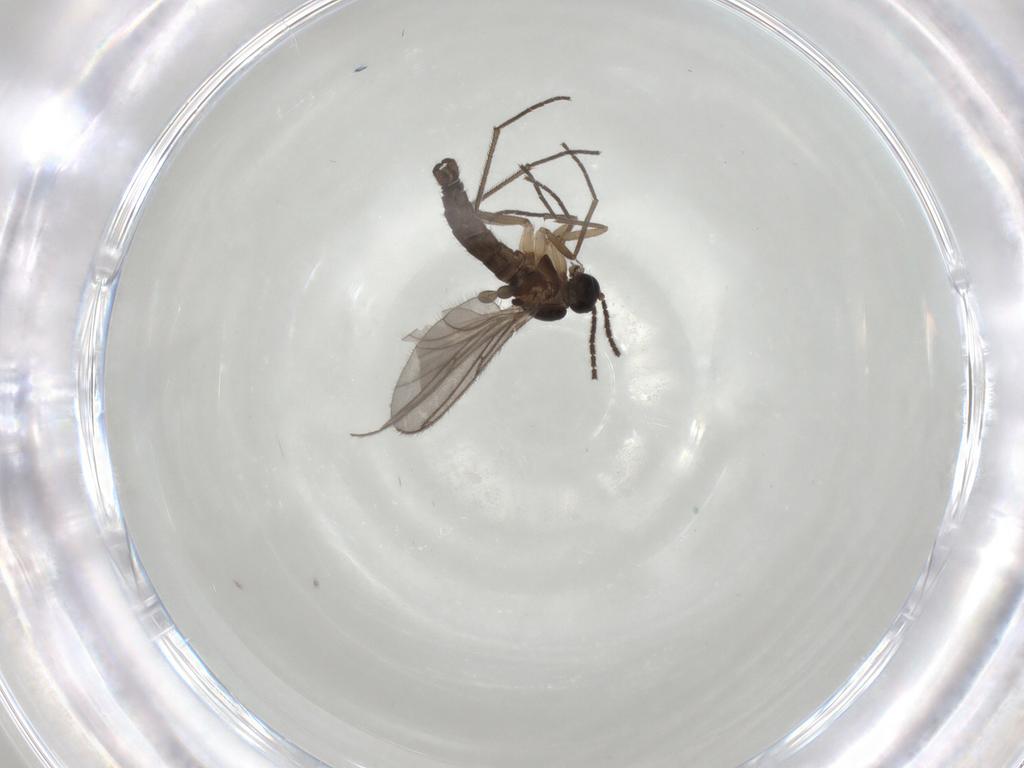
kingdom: Animalia
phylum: Arthropoda
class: Insecta
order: Diptera
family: Sciaridae
